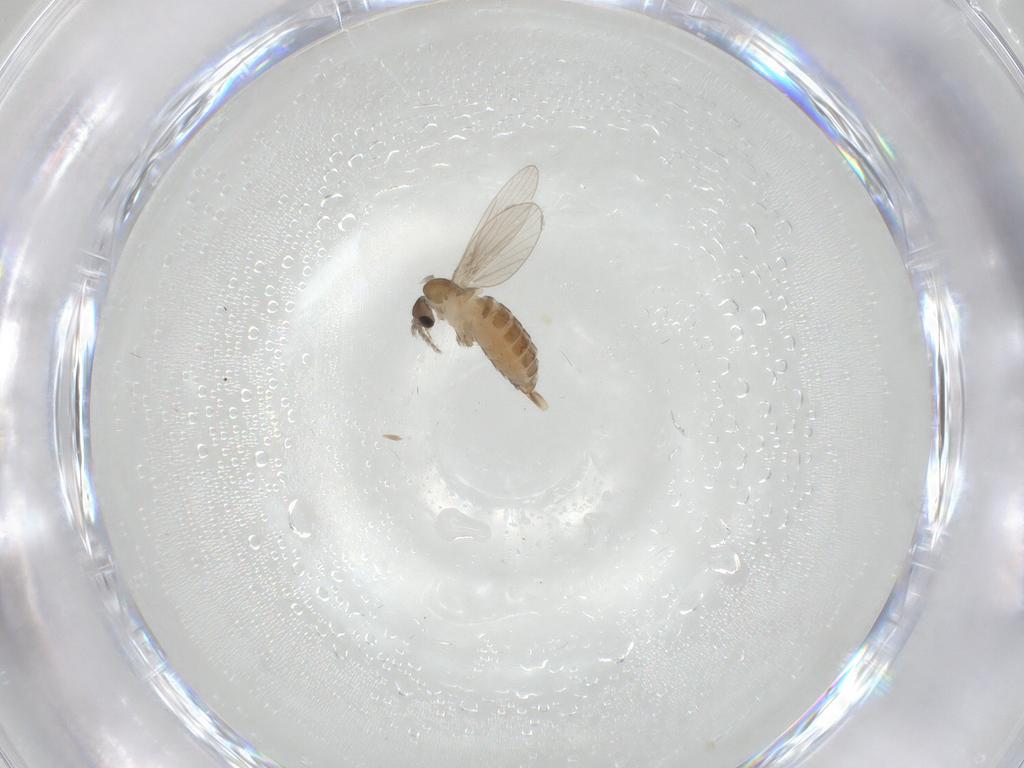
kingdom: Animalia
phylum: Arthropoda
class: Insecta
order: Diptera
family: Psychodidae
